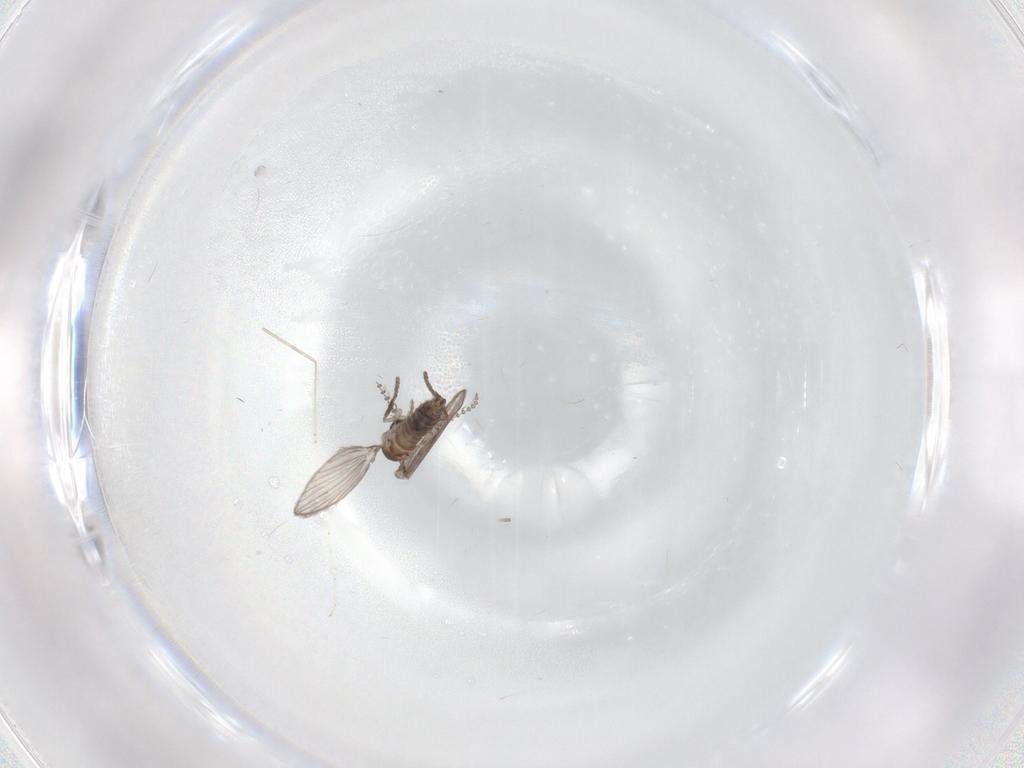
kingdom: Animalia
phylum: Arthropoda
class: Insecta
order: Diptera
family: Psychodidae
